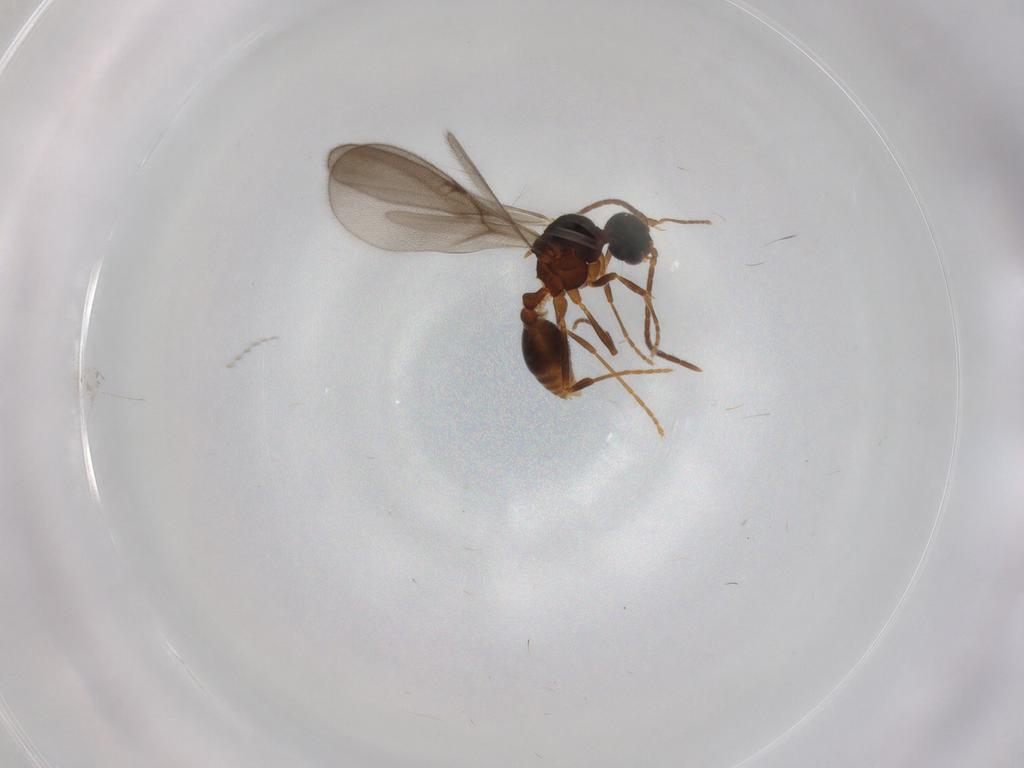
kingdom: Animalia
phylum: Arthropoda
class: Insecta
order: Hymenoptera
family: Formicidae
